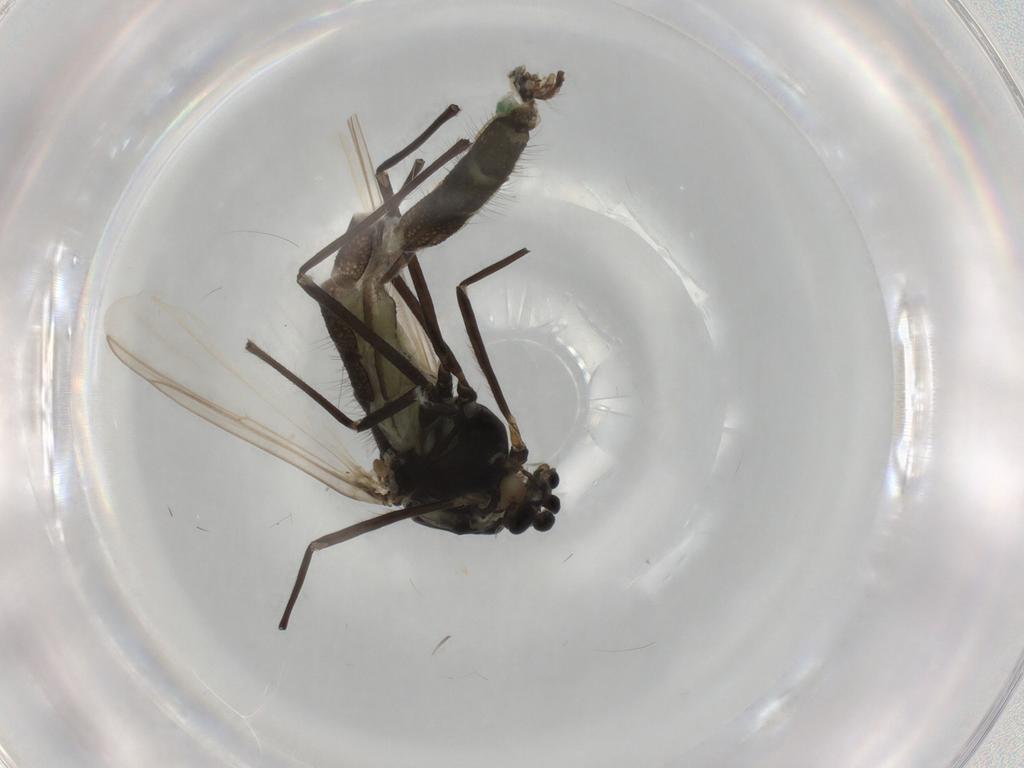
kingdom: Animalia
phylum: Arthropoda
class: Insecta
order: Diptera
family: Chironomidae
